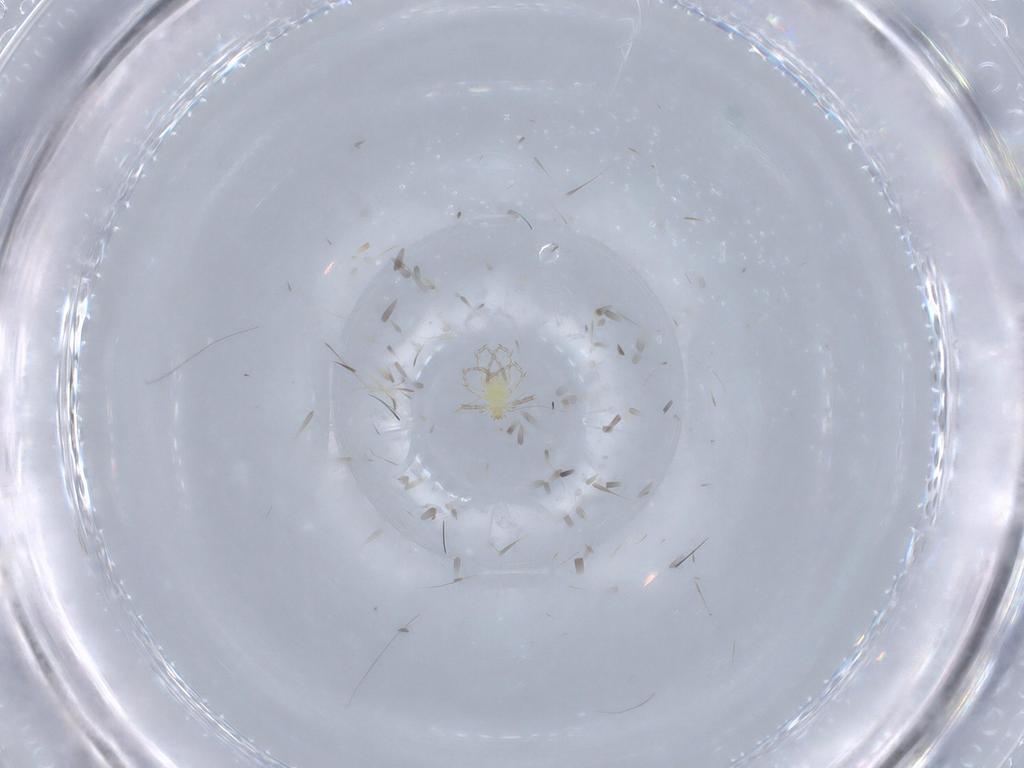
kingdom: Animalia
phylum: Arthropoda
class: Arachnida
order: Trombidiformes
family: Erythraeidae
